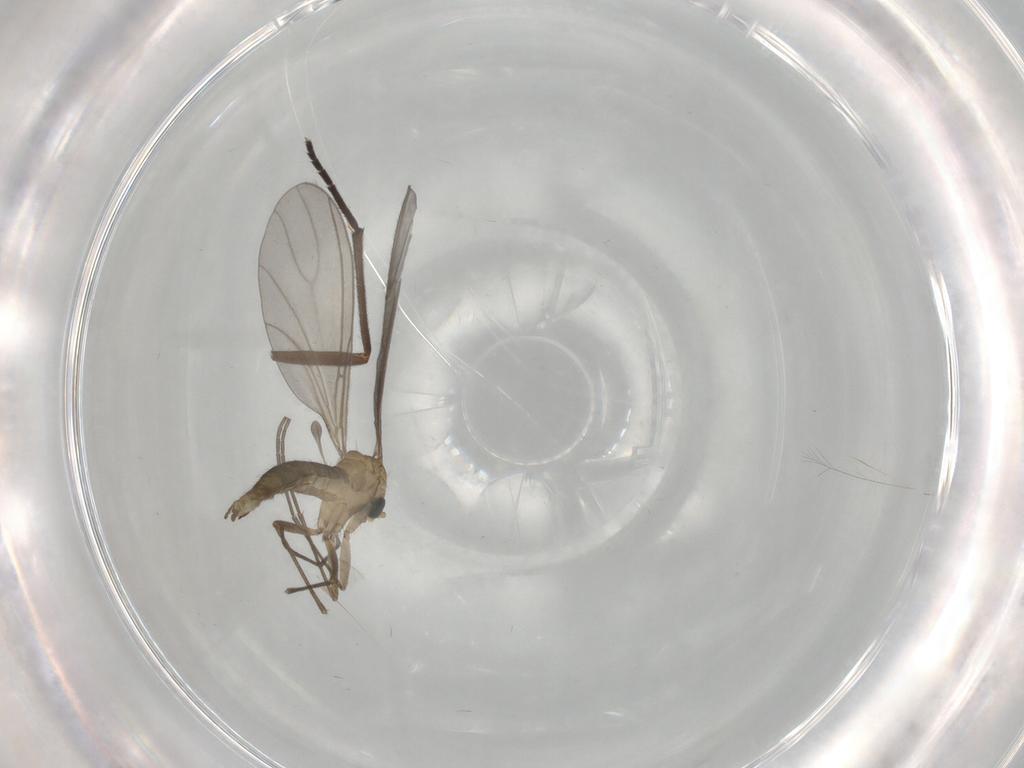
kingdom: Animalia
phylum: Arthropoda
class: Insecta
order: Diptera
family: Sciaridae
